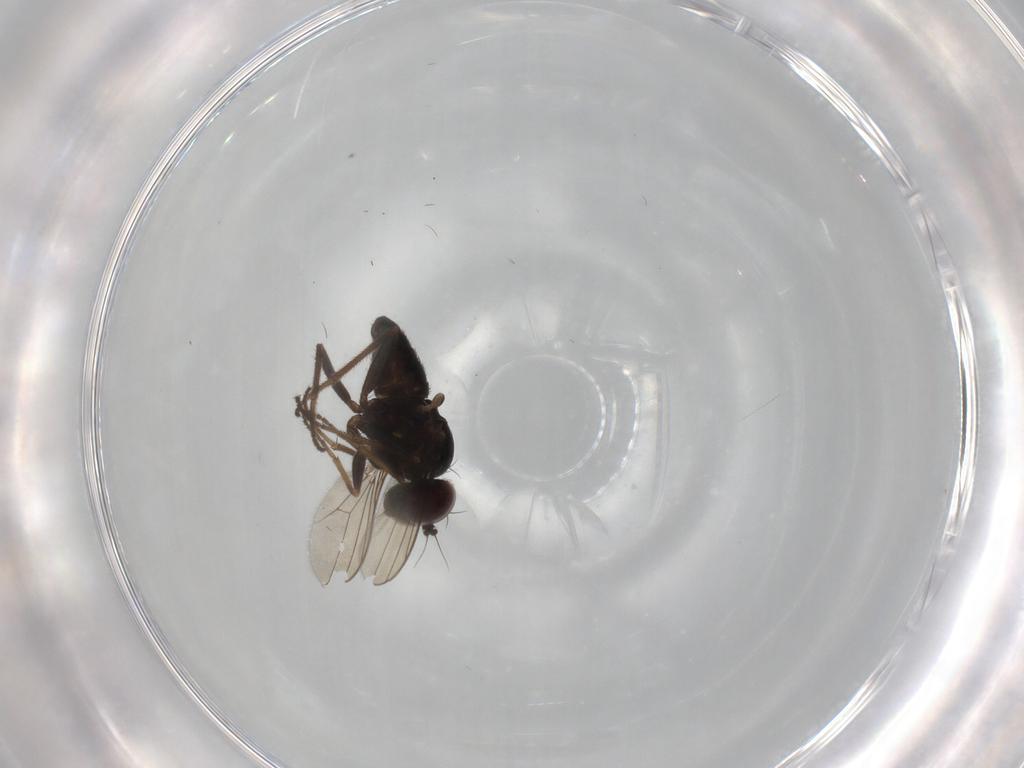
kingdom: Animalia
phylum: Arthropoda
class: Insecta
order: Diptera
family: Dolichopodidae
